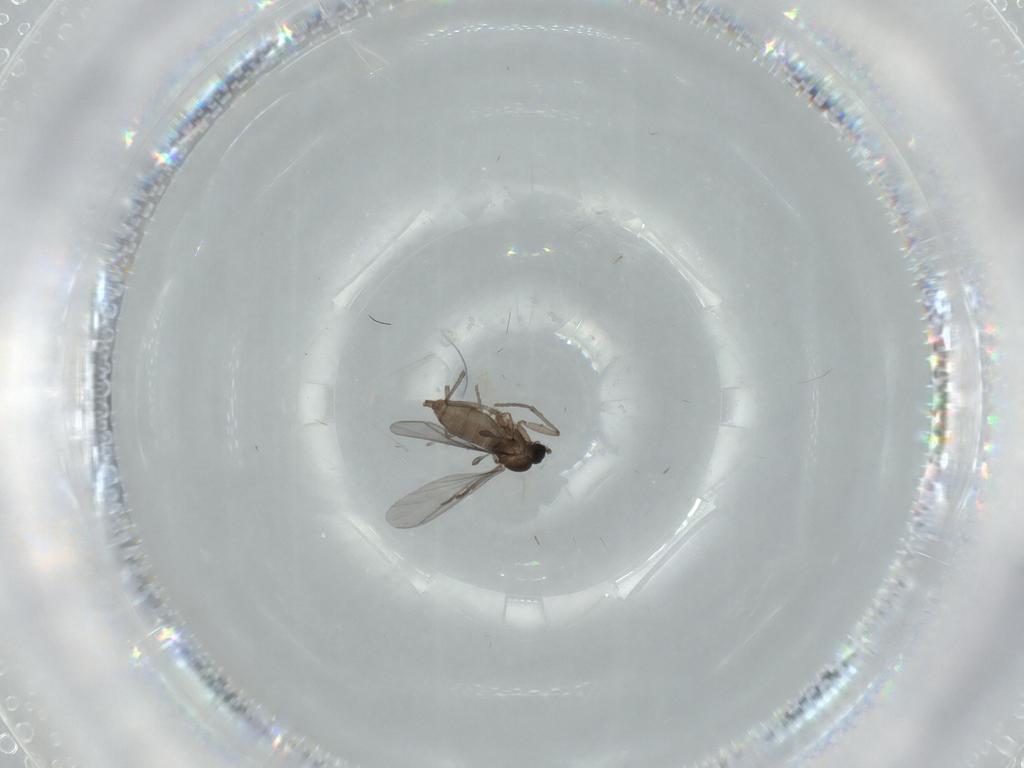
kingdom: Animalia
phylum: Arthropoda
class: Insecta
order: Diptera
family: Sciaridae
